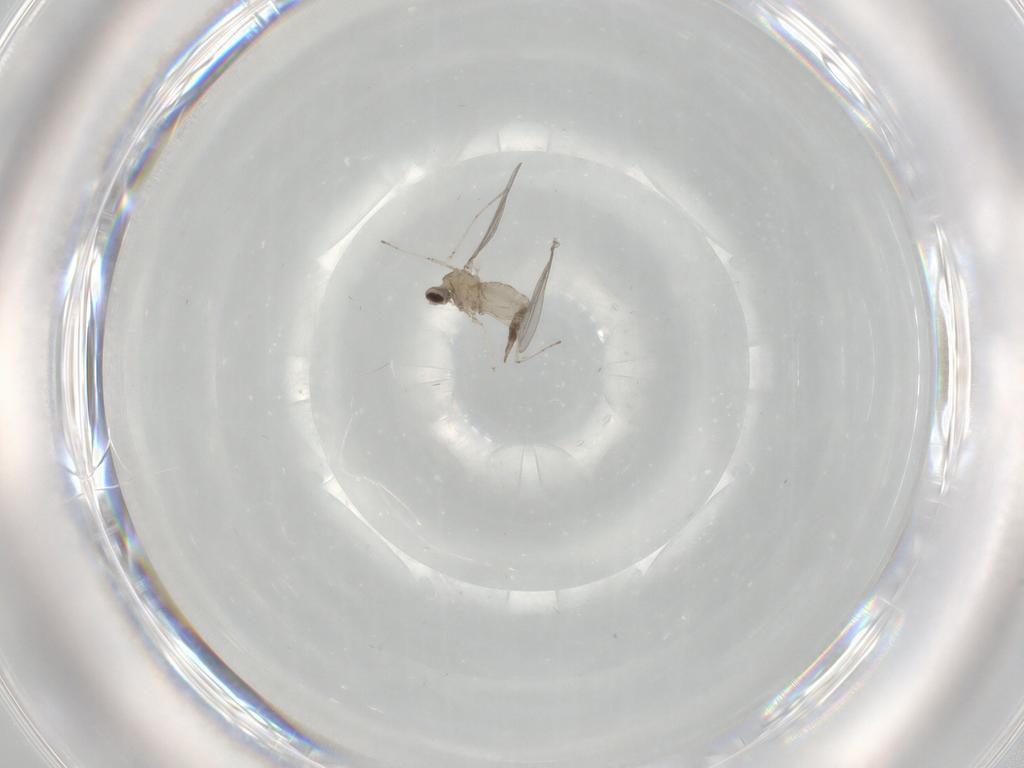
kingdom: Animalia
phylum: Arthropoda
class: Insecta
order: Diptera
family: Cecidomyiidae
